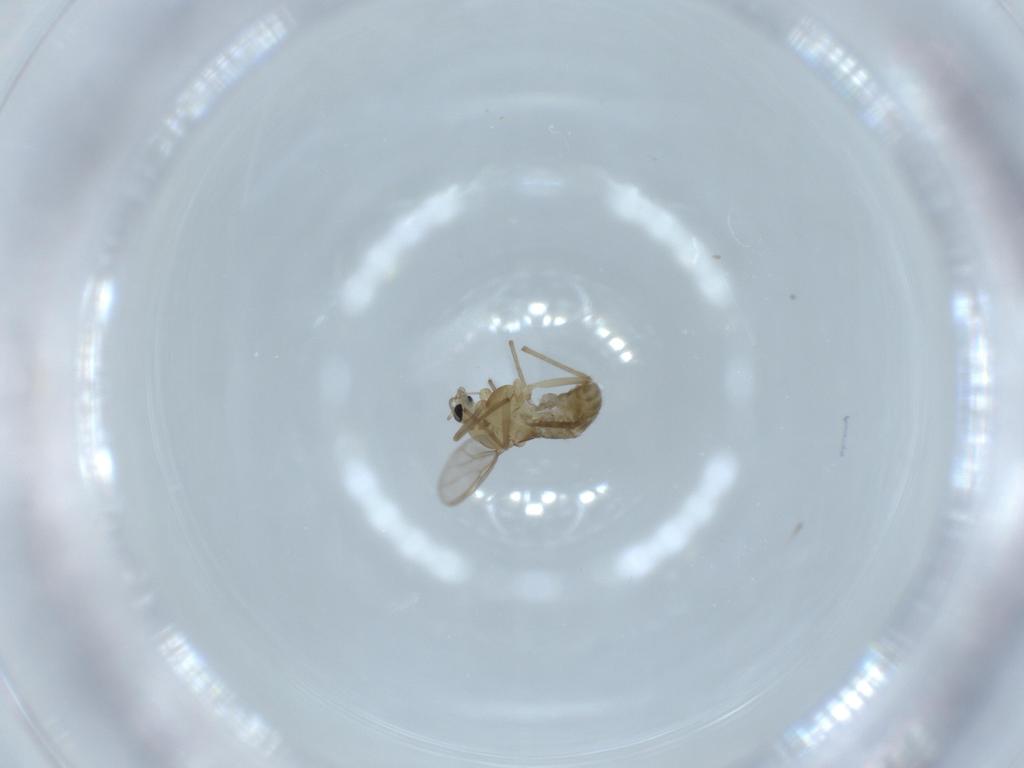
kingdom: Animalia
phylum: Arthropoda
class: Insecta
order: Diptera
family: Chironomidae
